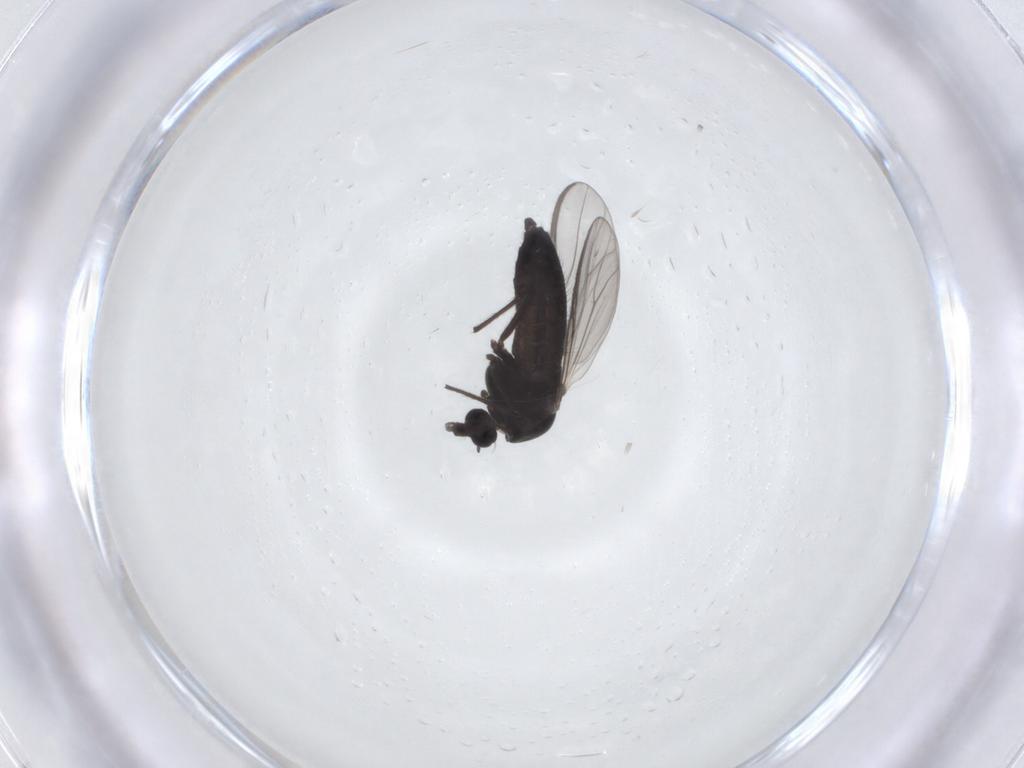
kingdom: Animalia
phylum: Arthropoda
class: Insecta
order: Diptera
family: Chironomidae
